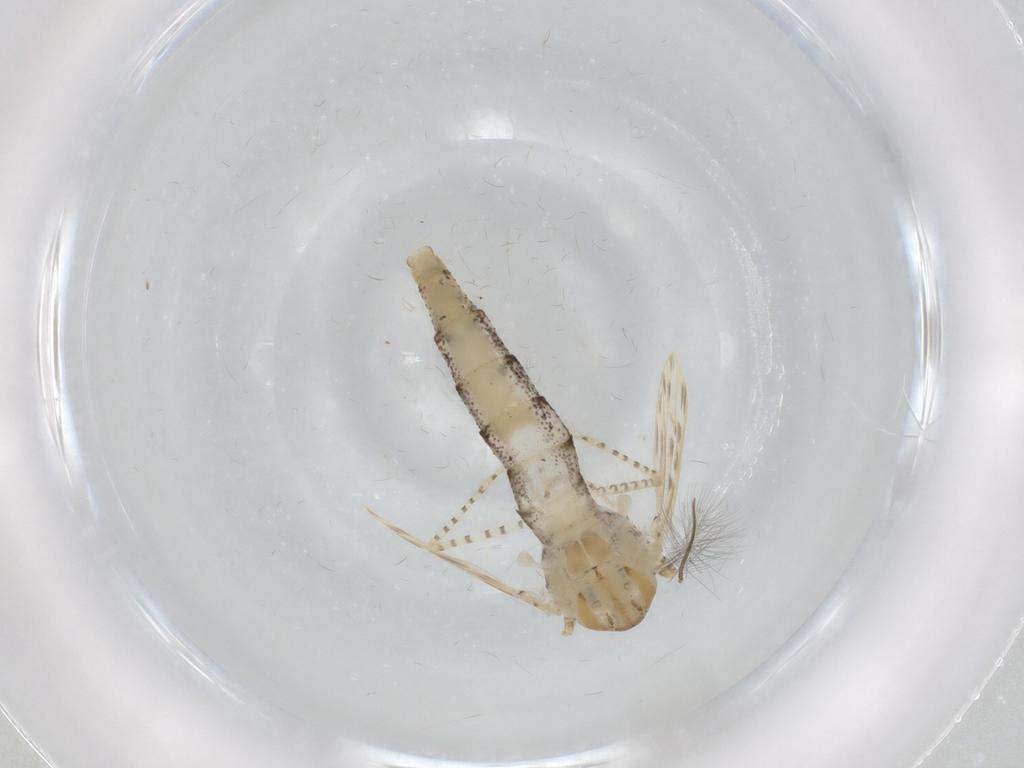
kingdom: Animalia
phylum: Arthropoda
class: Insecta
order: Diptera
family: Chaoboridae
